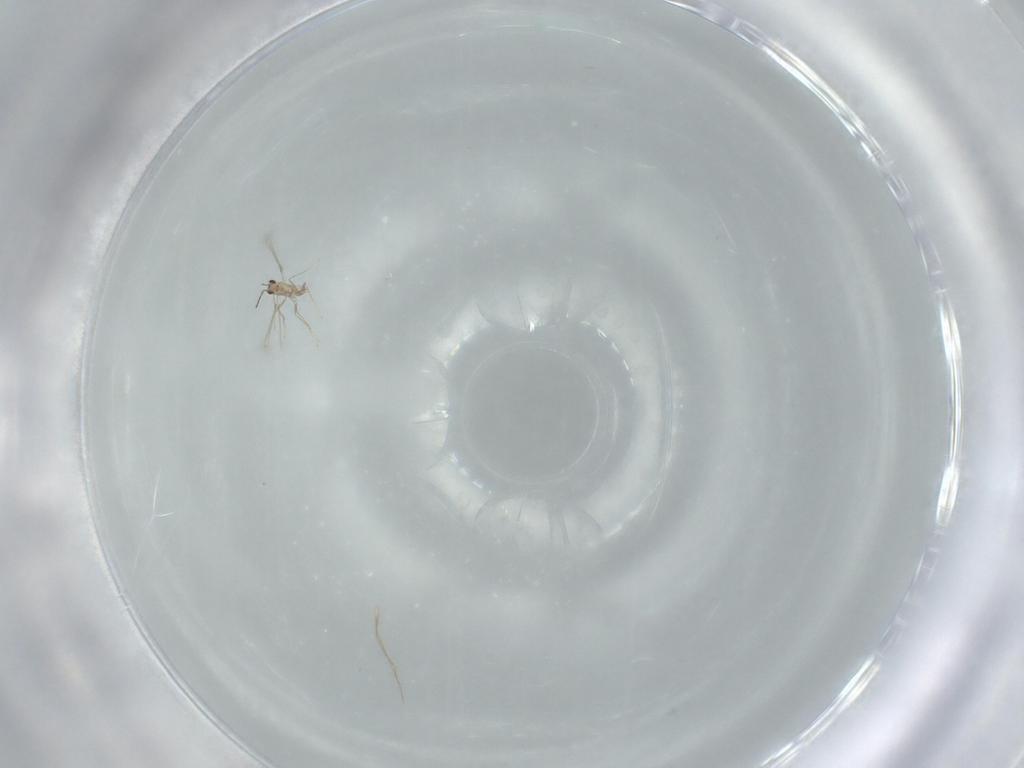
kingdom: Animalia
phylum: Arthropoda
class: Insecta
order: Hymenoptera
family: Mymaridae
